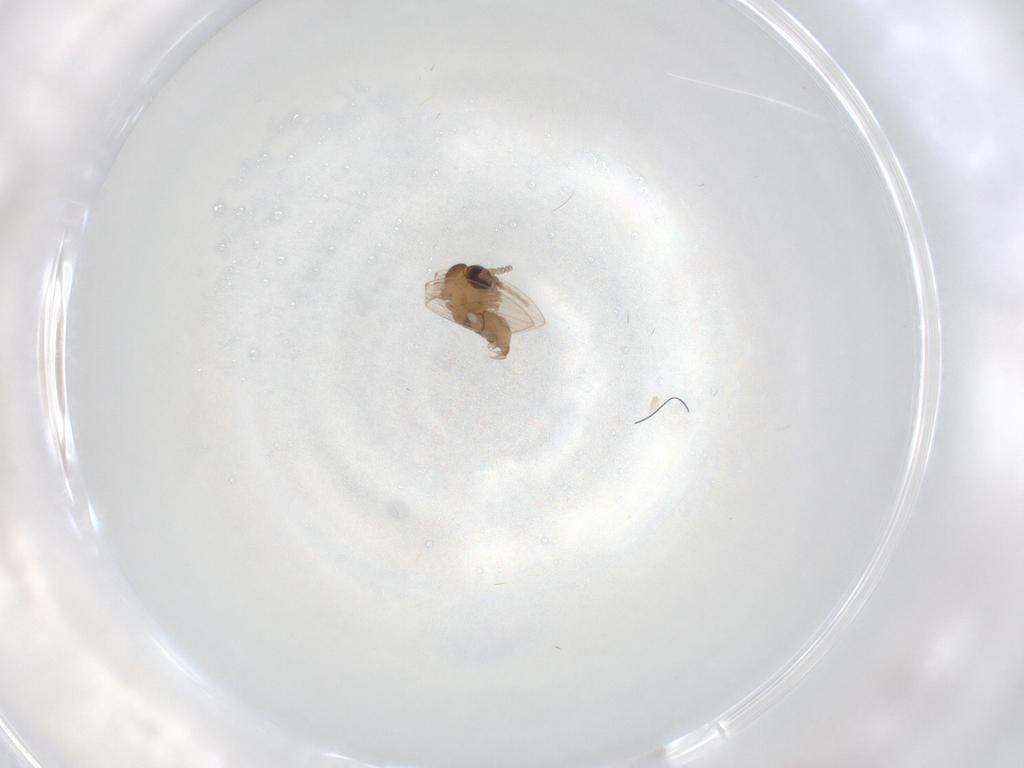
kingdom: Animalia
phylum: Arthropoda
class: Insecta
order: Diptera
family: Psychodidae
